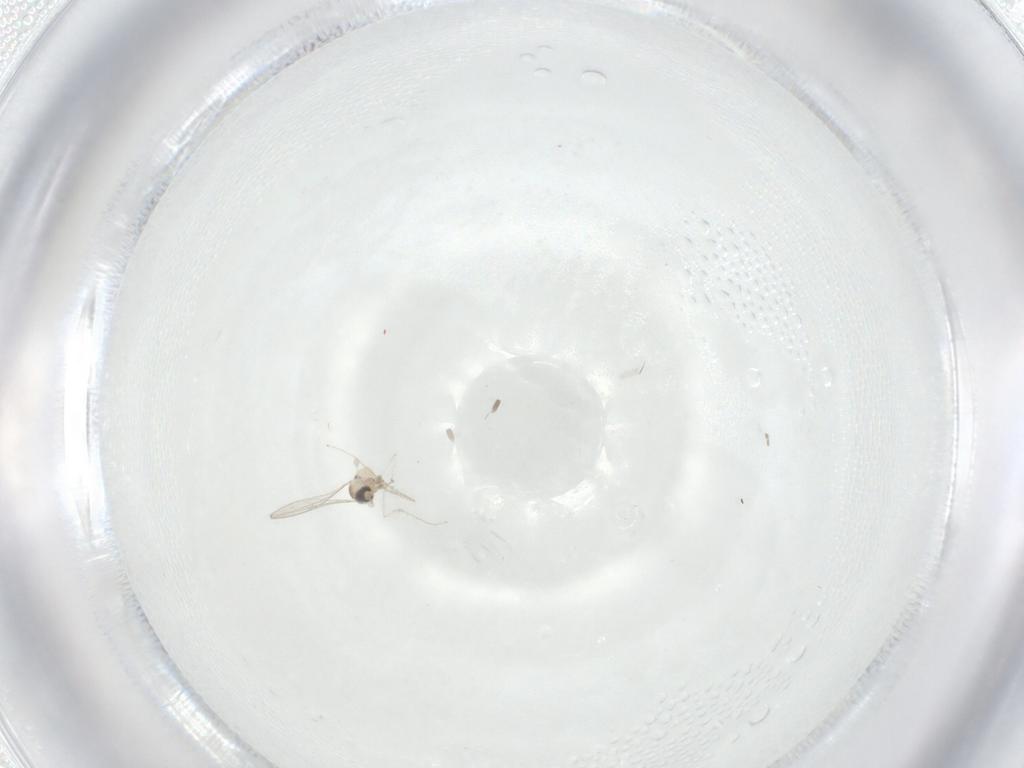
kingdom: Animalia
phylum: Arthropoda
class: Insecta
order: Diptera
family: Cecidomyiidae
